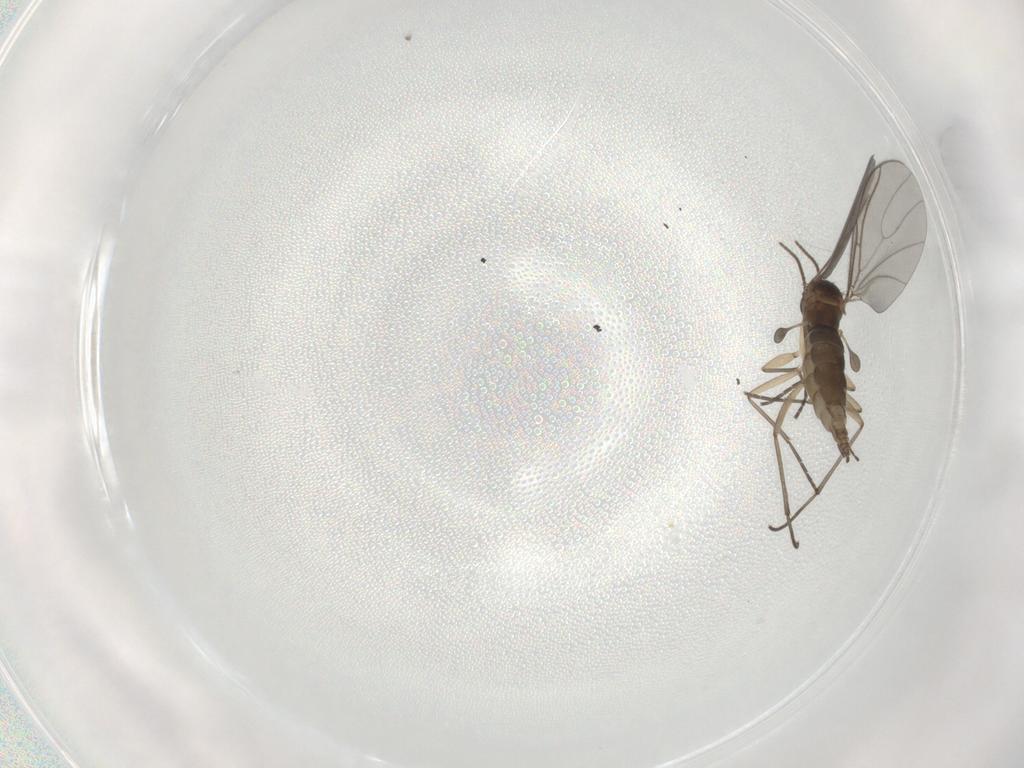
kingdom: Animalia
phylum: Arthropoda
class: Insecta
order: Diptera
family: Sciaridae
